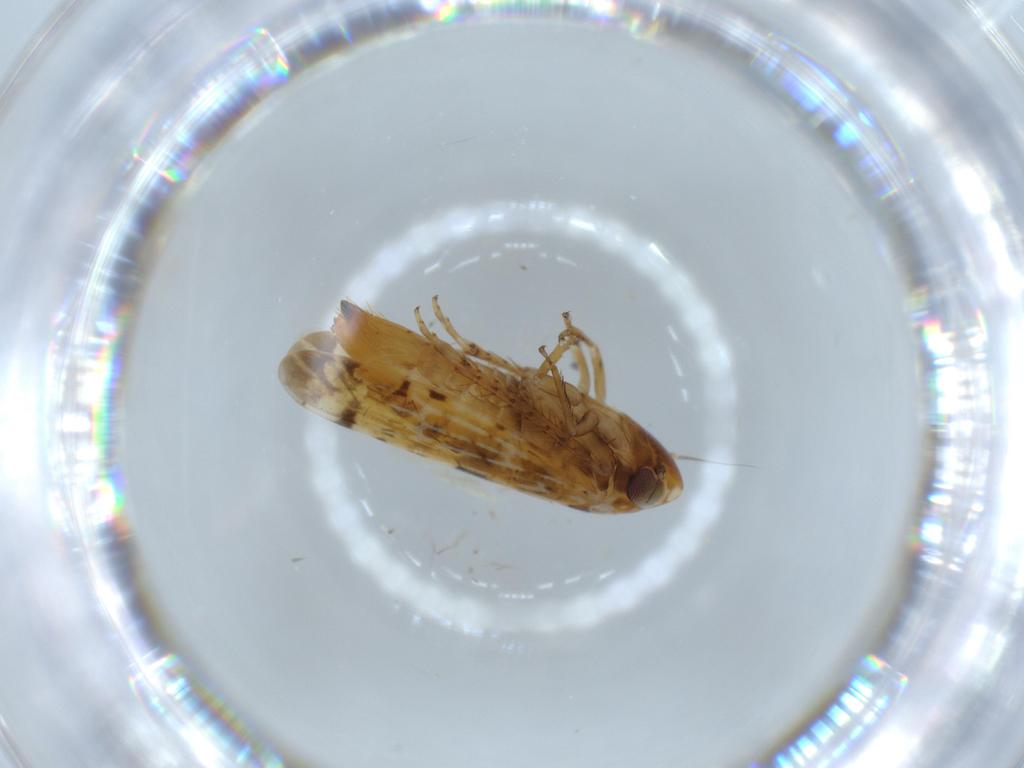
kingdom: Animalia
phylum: Arthropoda
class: Insecta
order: Hemiptera
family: Cicadellidae
